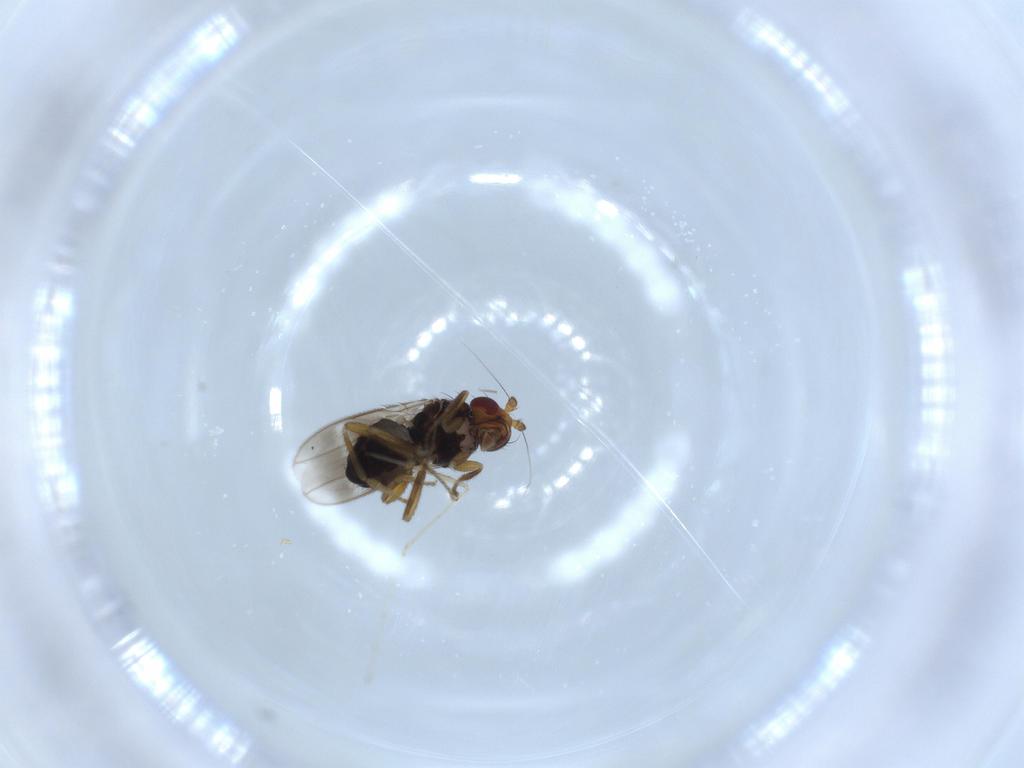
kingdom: Animalia
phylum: Arthropoda
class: Insecta
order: Diptera
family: Sphaeroceridae
